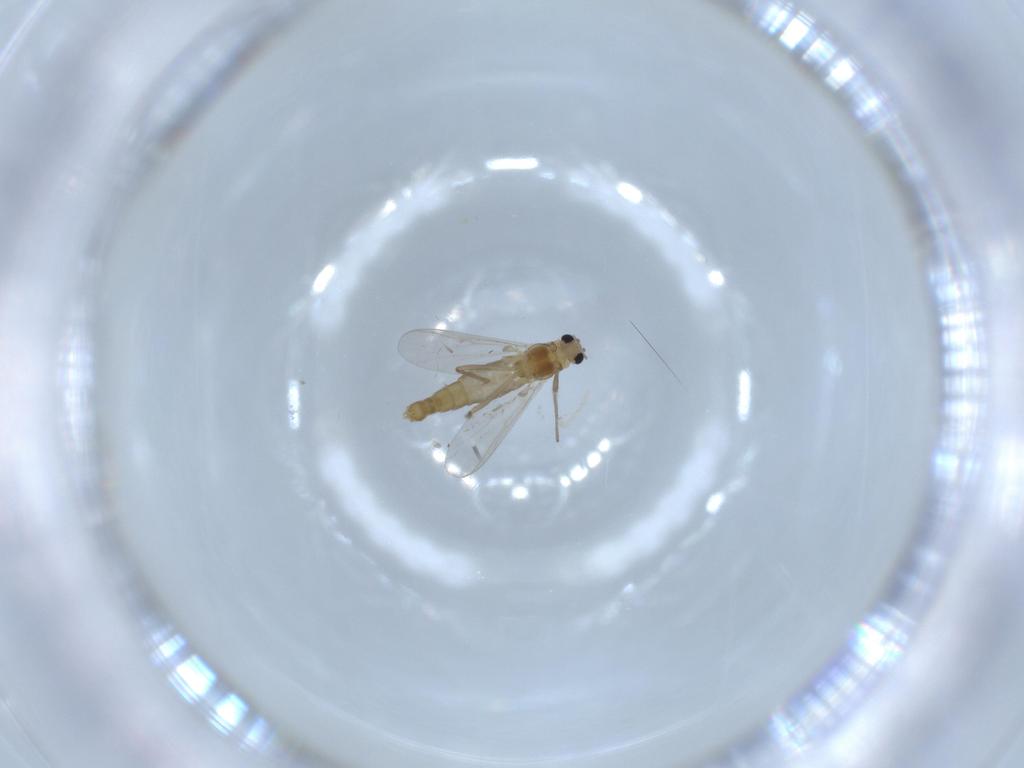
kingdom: Animalia
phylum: Arthropoda
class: Insecta
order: Diptera
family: Chironomidae
